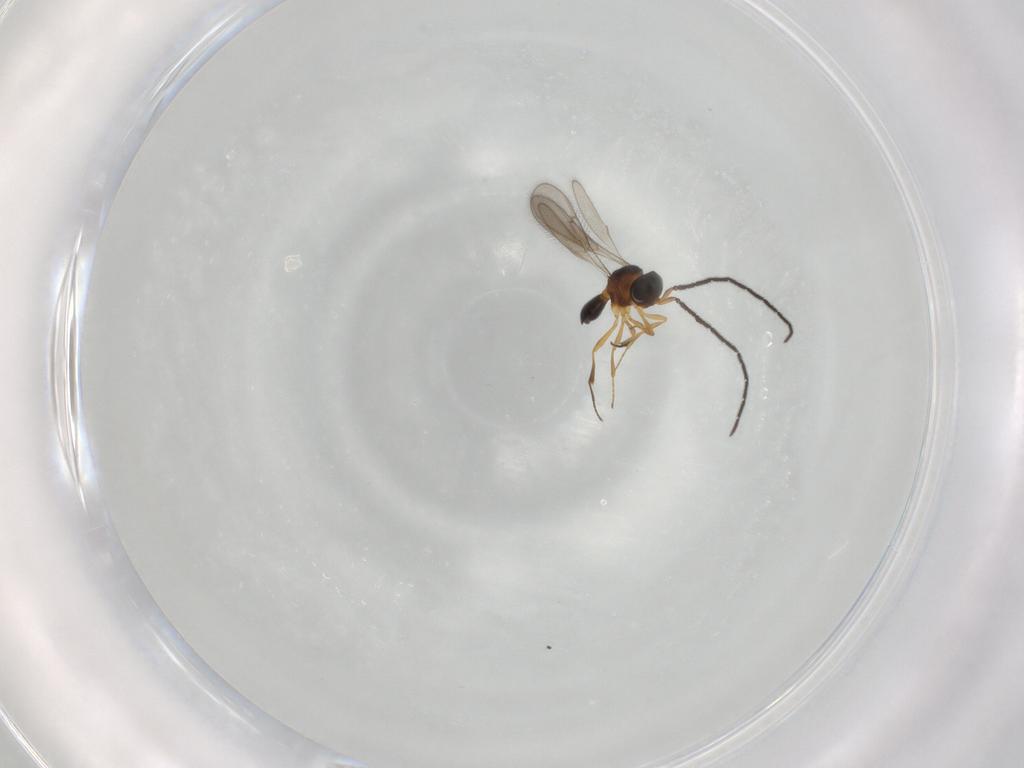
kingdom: Animalia
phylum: Arthropoda
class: Insecta
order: Hymenoptera
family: Scelionidae
